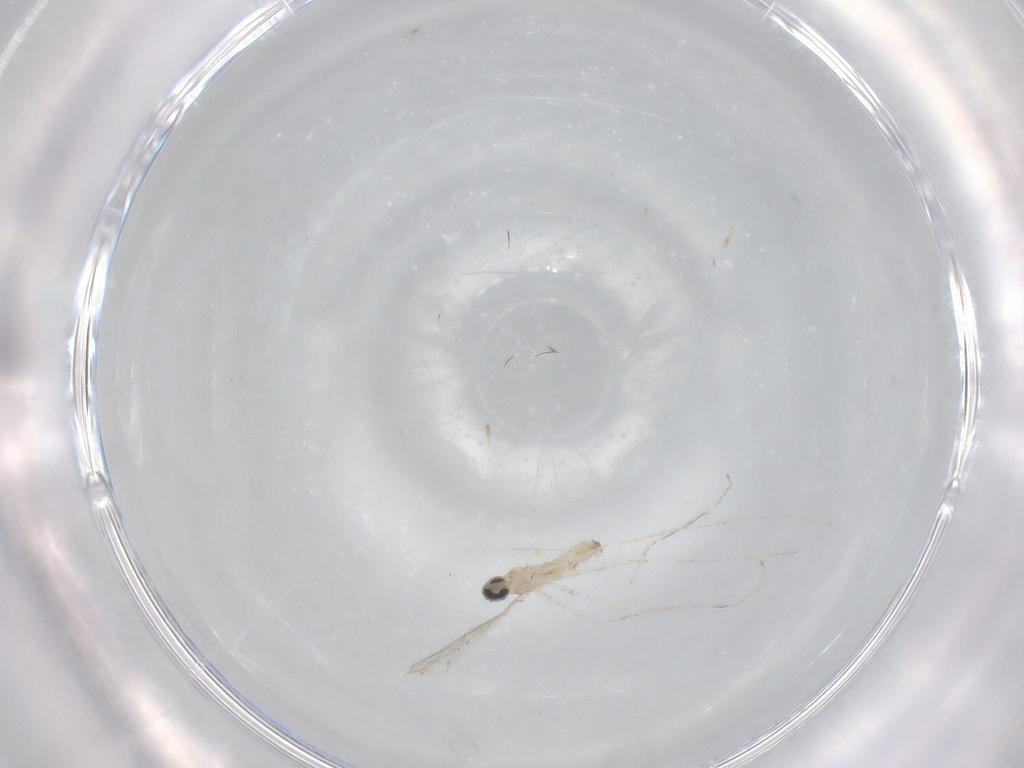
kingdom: Animalia
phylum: Arthropoda
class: Insecta
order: Diptera
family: Cecidomyiidae
